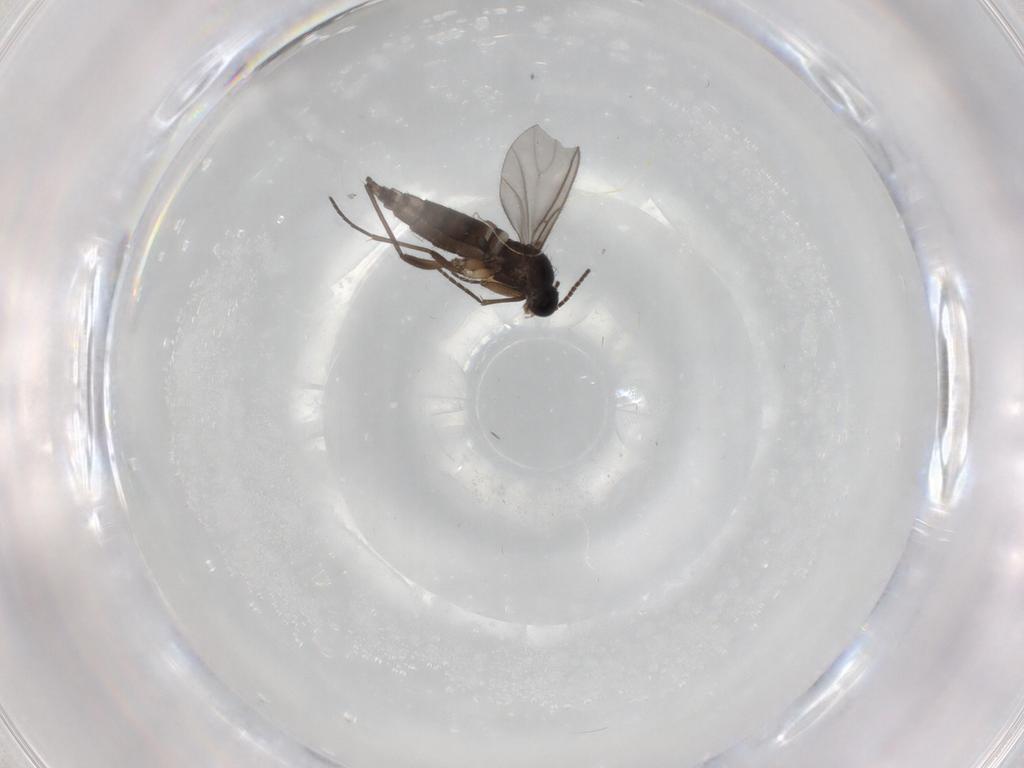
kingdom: Animalia
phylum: Arthropoda
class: Insecta
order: Diptera
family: Sciaridae
